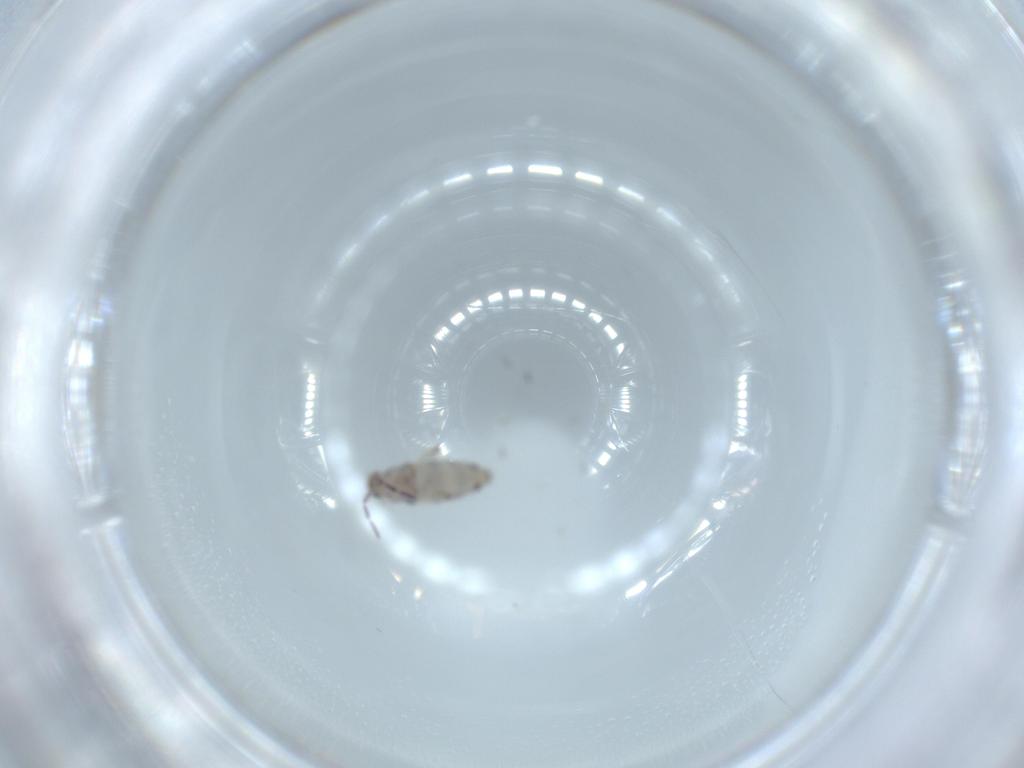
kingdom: Animalia
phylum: Arthropoda
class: Collembola
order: Entomobryomorpha
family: Entomobryidae
